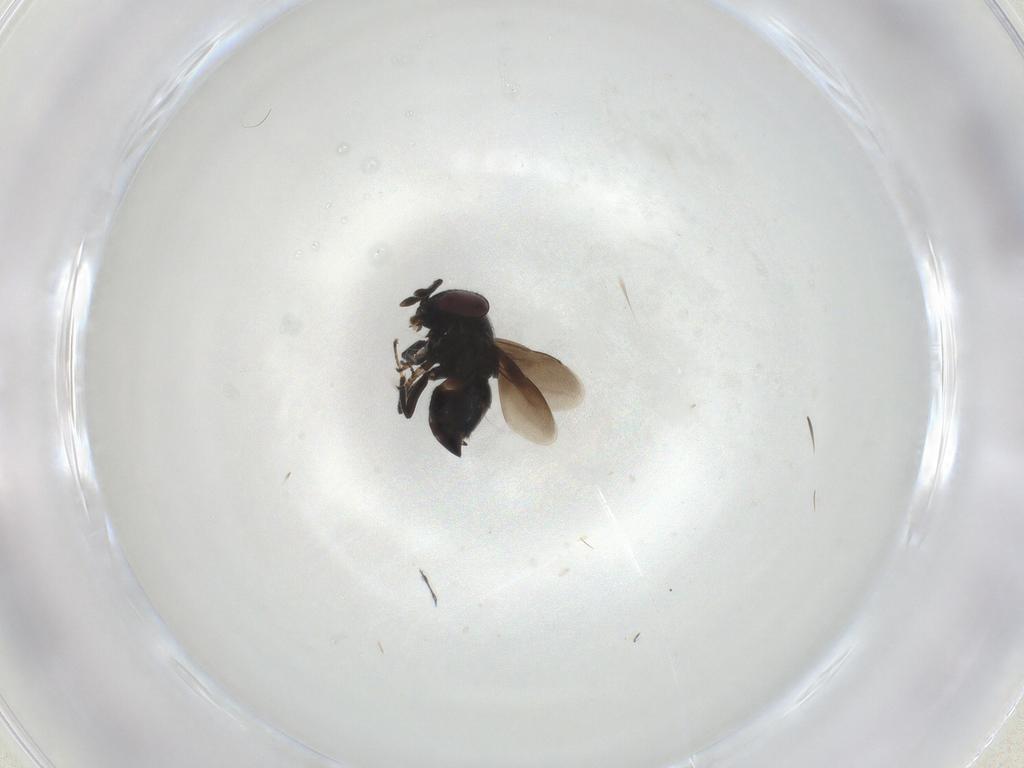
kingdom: Animalia
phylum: Arthropoda
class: Insecta
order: Hymenoptera
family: Encyrtidae
